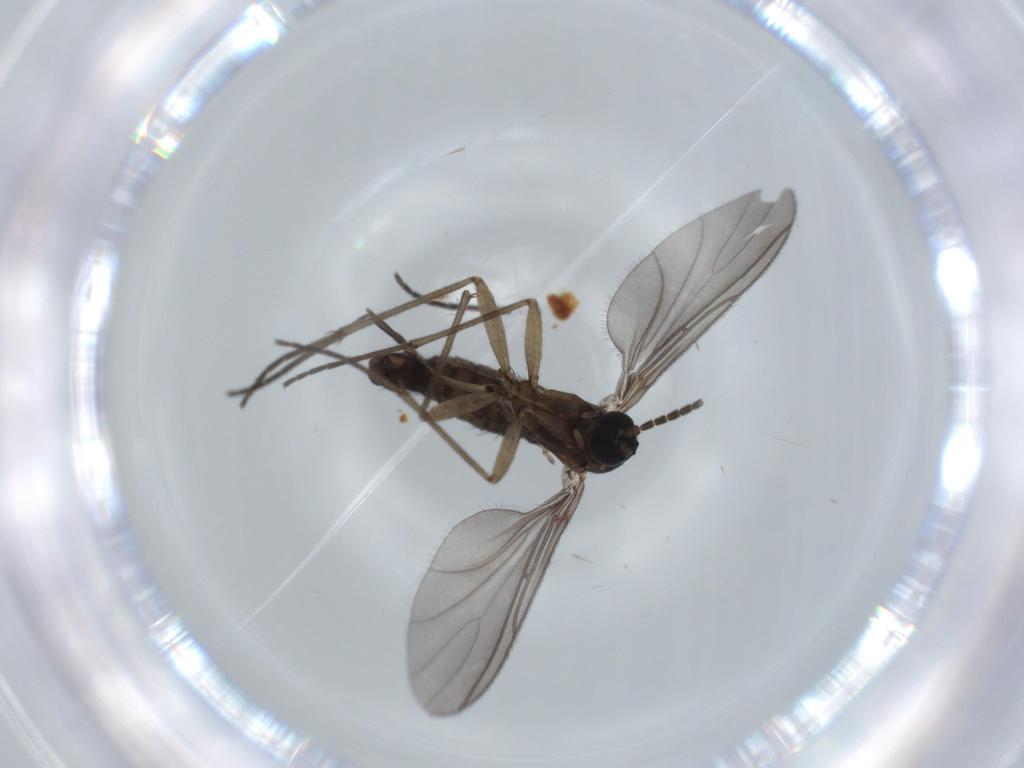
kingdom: Animalia
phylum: Arthropoda
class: Insecta
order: Diptera
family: Sciaridae
